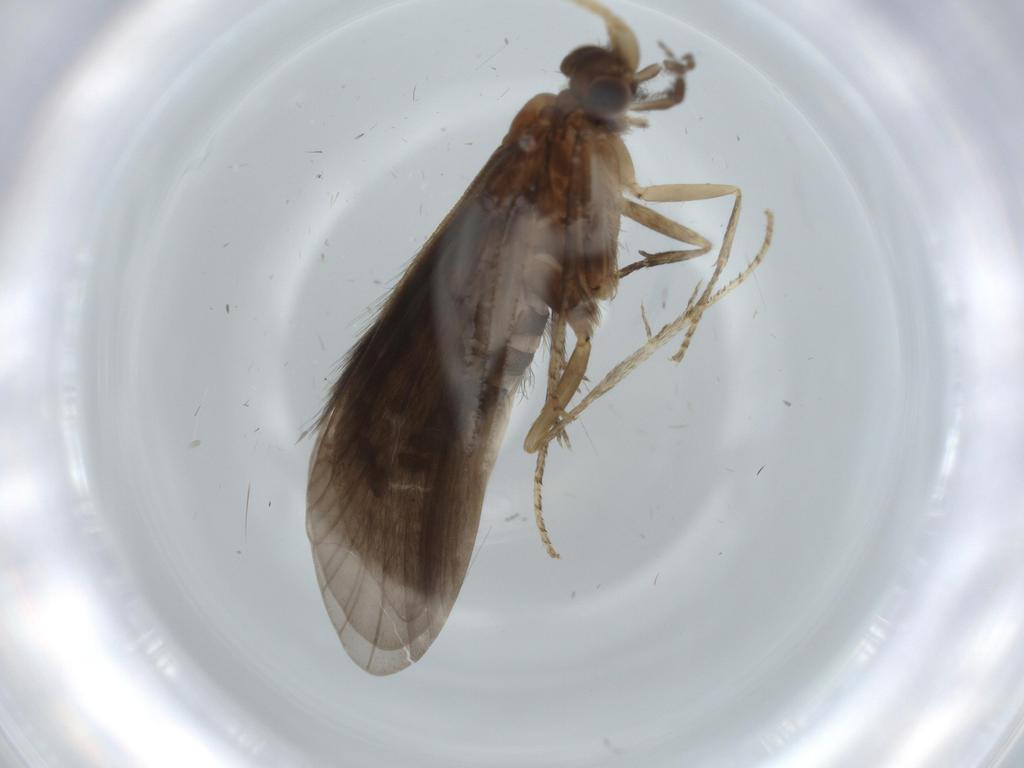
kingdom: Animalia
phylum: Arthropoda
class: Insecta
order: Trichoptera
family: Helicopsychidae
